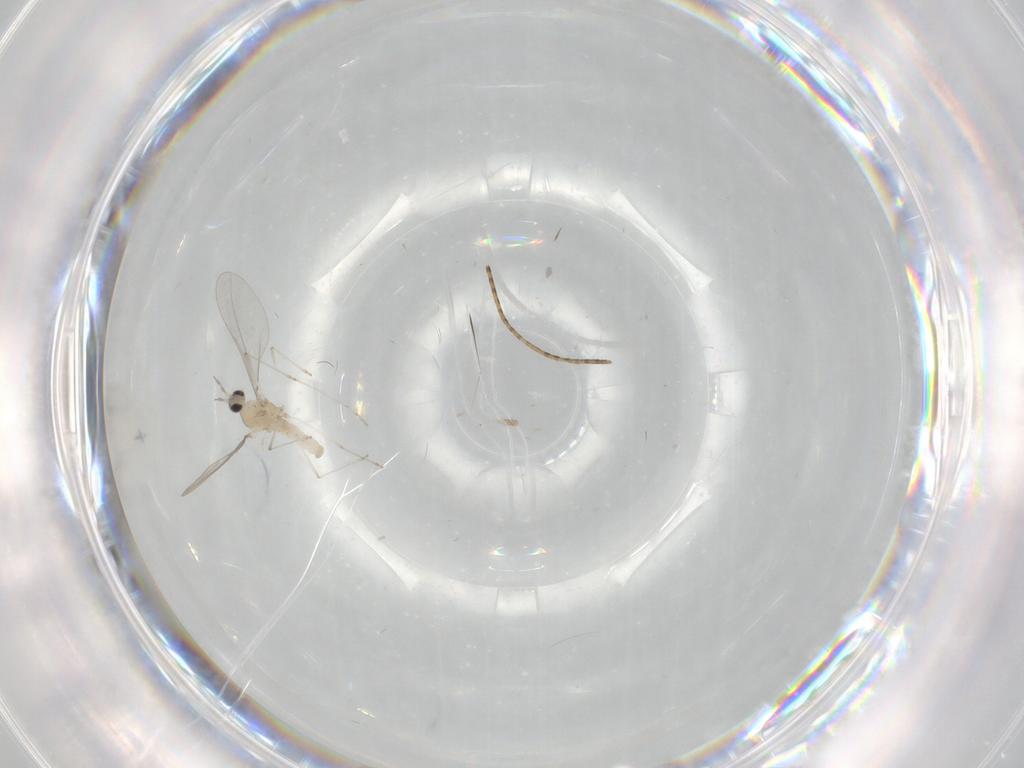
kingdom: Animalia
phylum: Arthropoda
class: Insecta
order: Diptera
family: Cecidomyiidae
